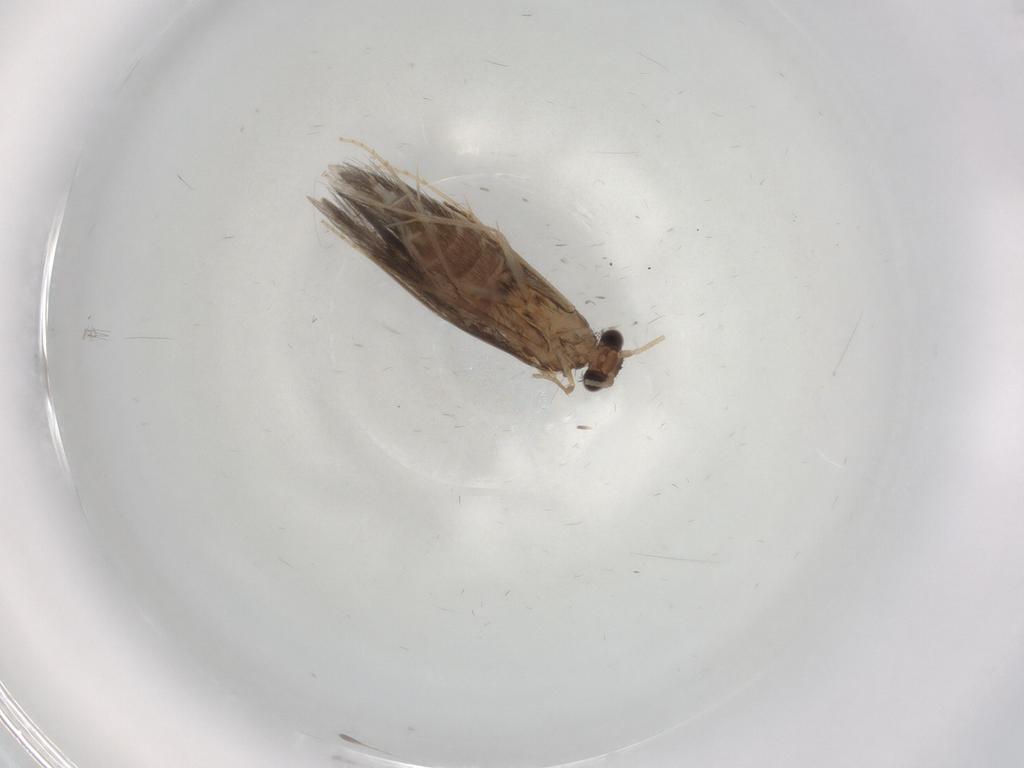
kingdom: Animalia
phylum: Arthropoda
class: Insecta
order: Trichoptera
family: Hydroptilidae
